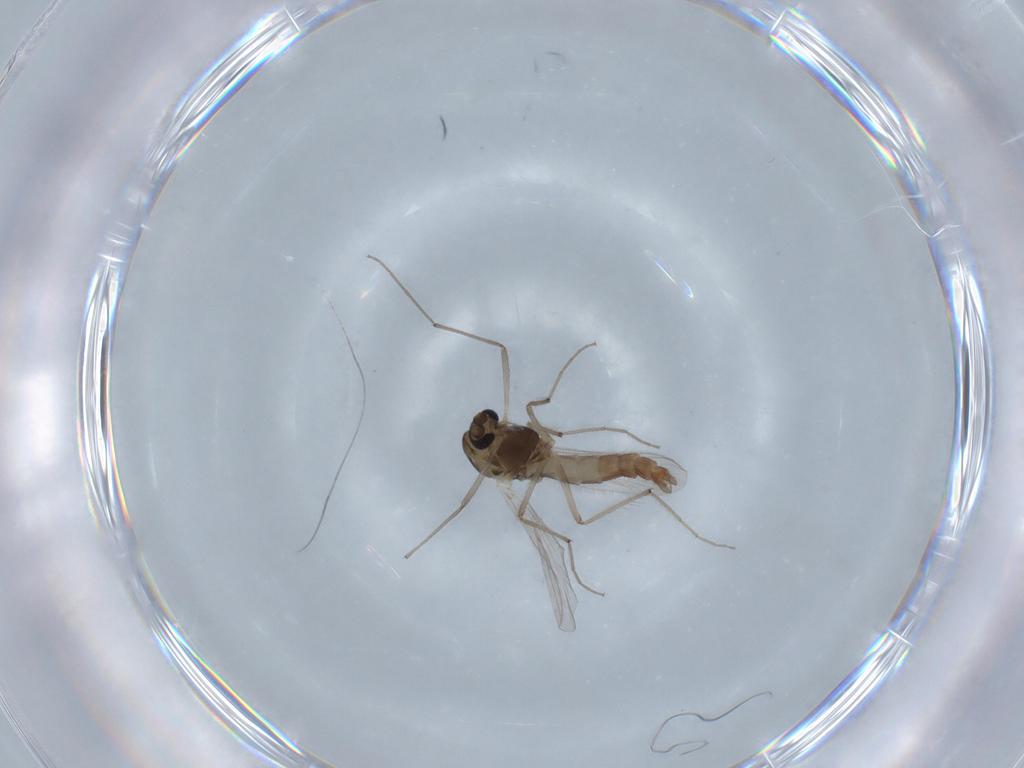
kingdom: Animalia
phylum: Arthropoda
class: Insecta
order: Diptera
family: Chironomidae
